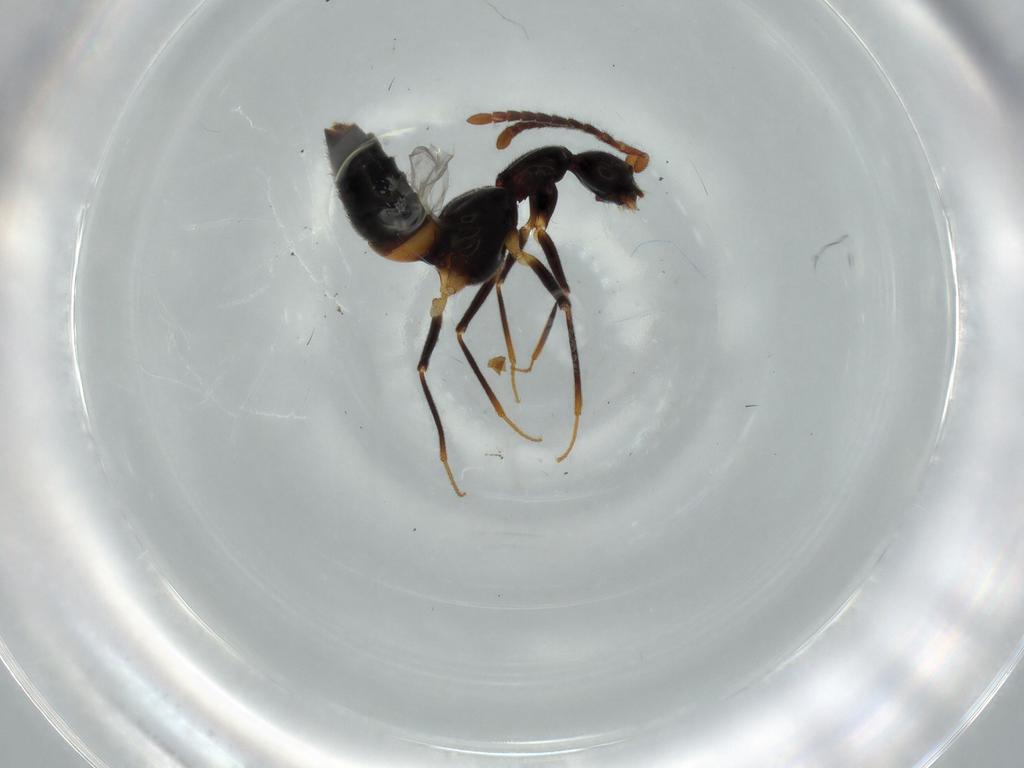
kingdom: Animalia
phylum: Arthropoda
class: Insecta
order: Coleoptera
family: Staphylinidae
